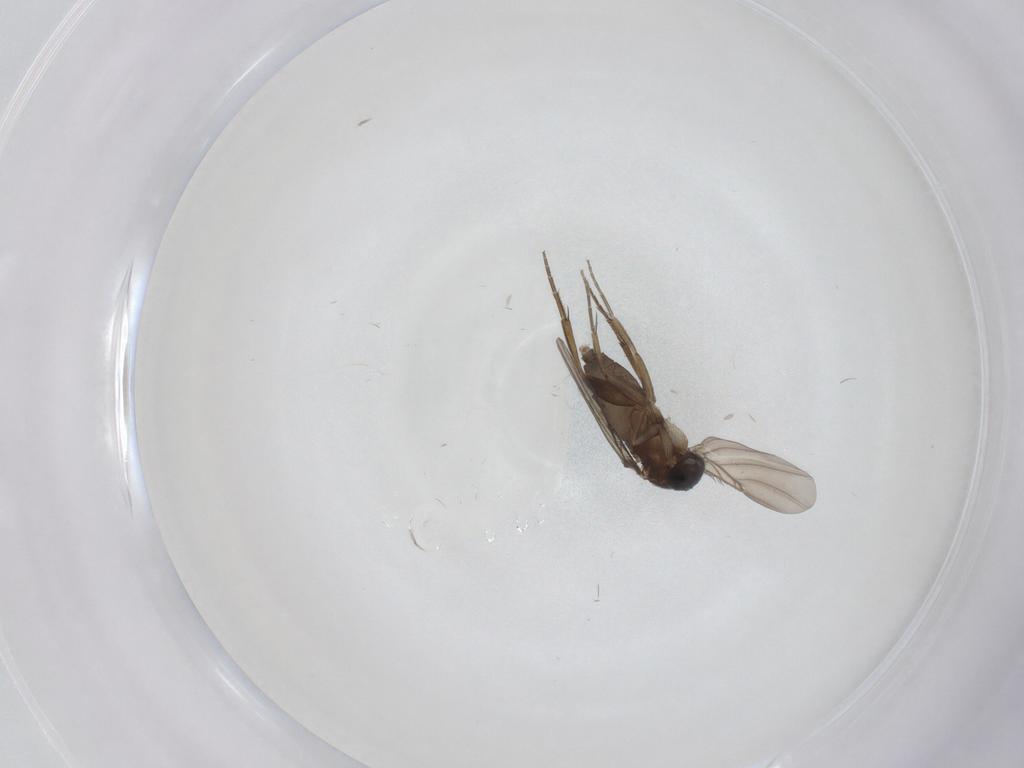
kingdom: Animalia
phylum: Arthropoda
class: Insecta
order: Diptera
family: Phoridae
